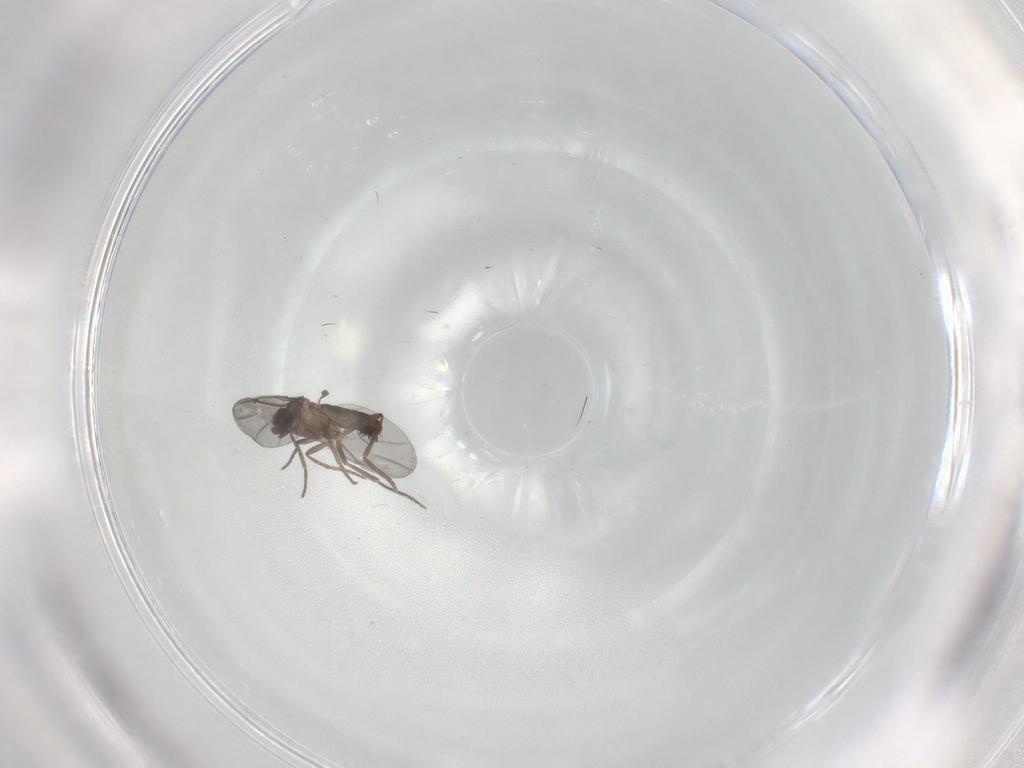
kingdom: Animalia
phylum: Arthropoda
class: Insecta
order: Diptera
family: Phoridae
